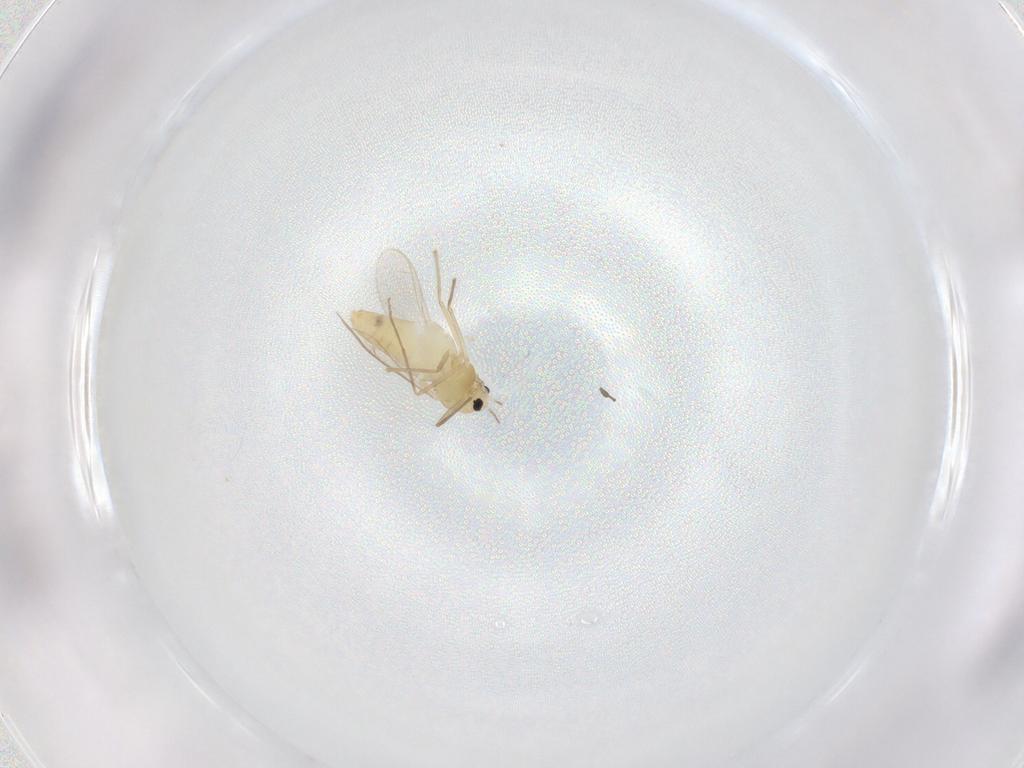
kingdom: Animalia
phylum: Arthropoda
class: Insecta
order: Diptera
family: Chironomidae
